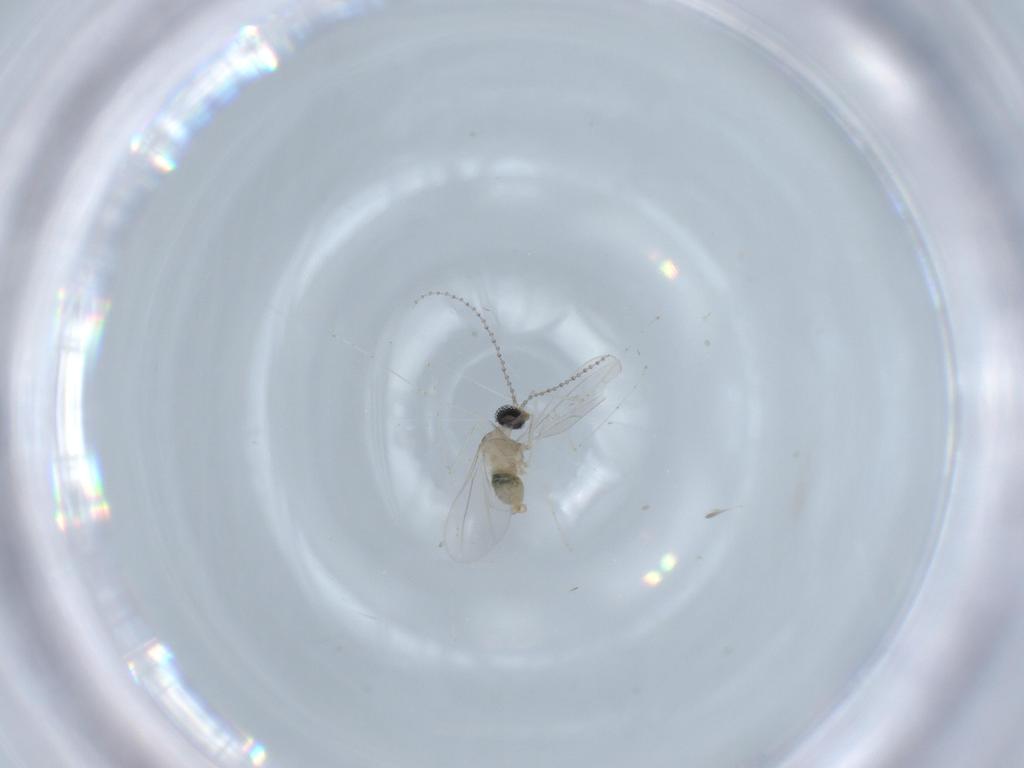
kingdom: Animalia
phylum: Arthropoda
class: Insecta
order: Diptera
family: Cecidomyiidae
